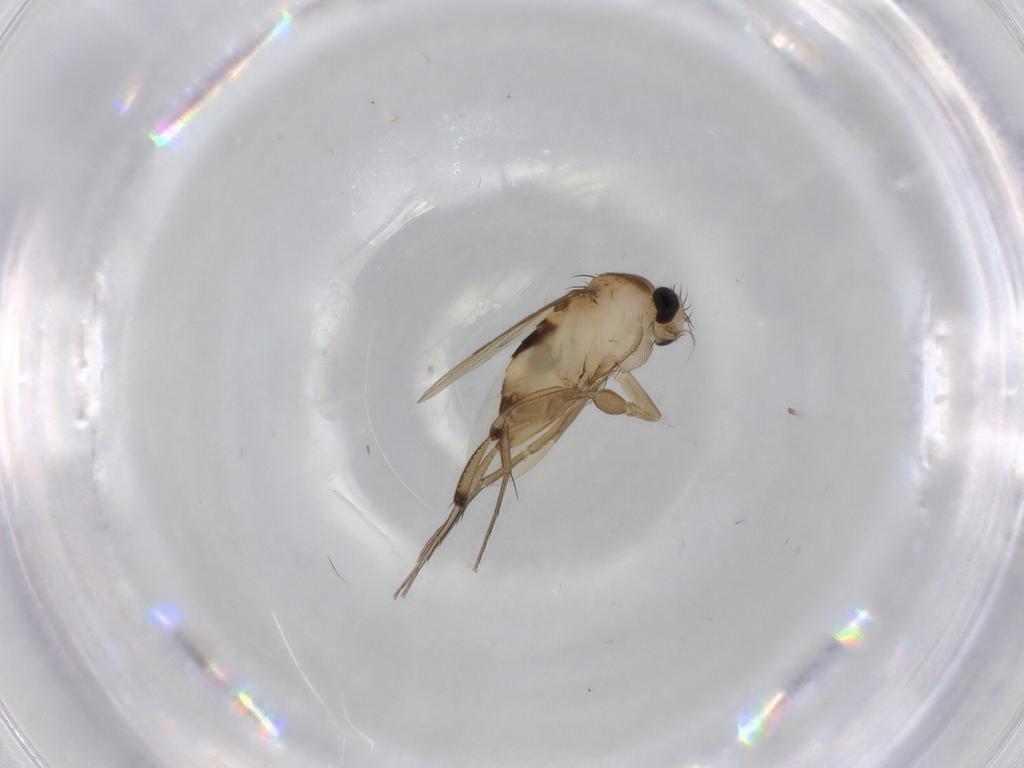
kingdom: Animalia
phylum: Arthropoda
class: Insecta
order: Diptera
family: Phoridae
